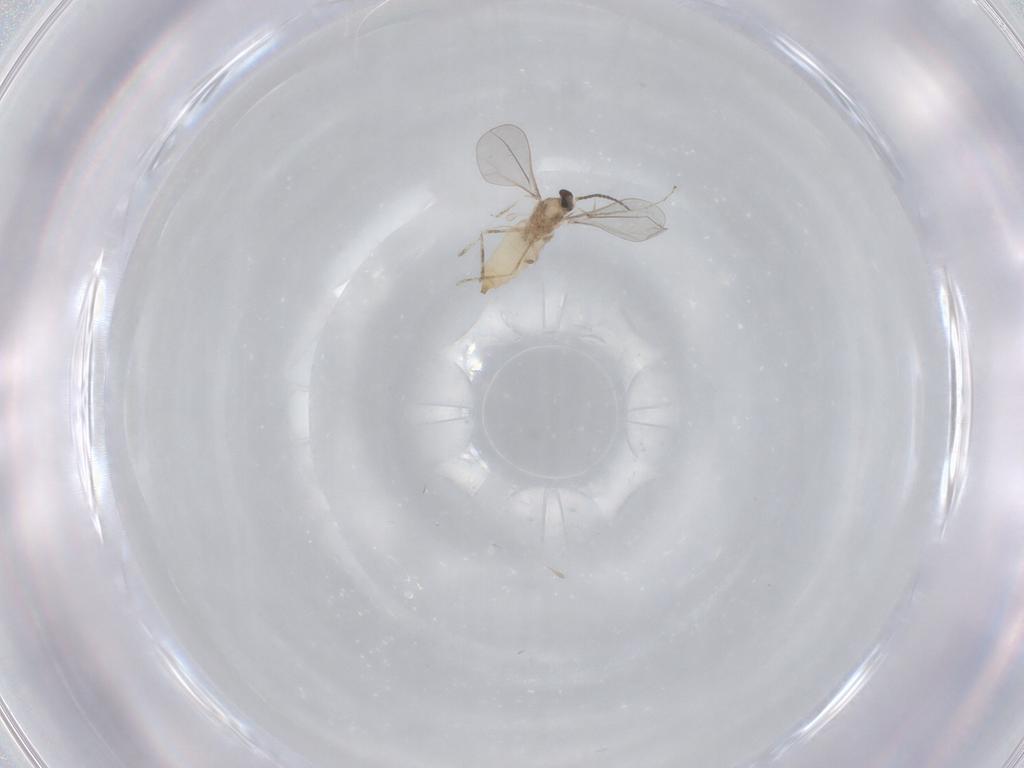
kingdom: Animalia
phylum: Arthropoda
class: Insecta
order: Diptera
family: Cecidomyiidae
